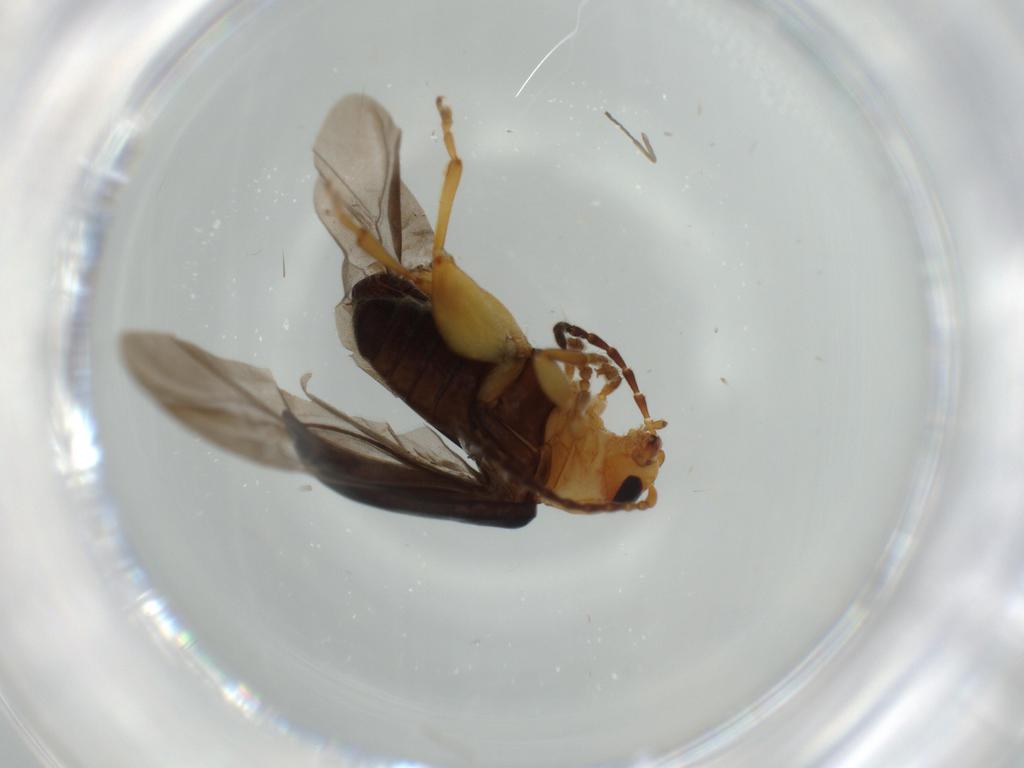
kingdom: Animalia
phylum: Arthropoda
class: Insecta
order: Coleoptera
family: Chrysomelidae
